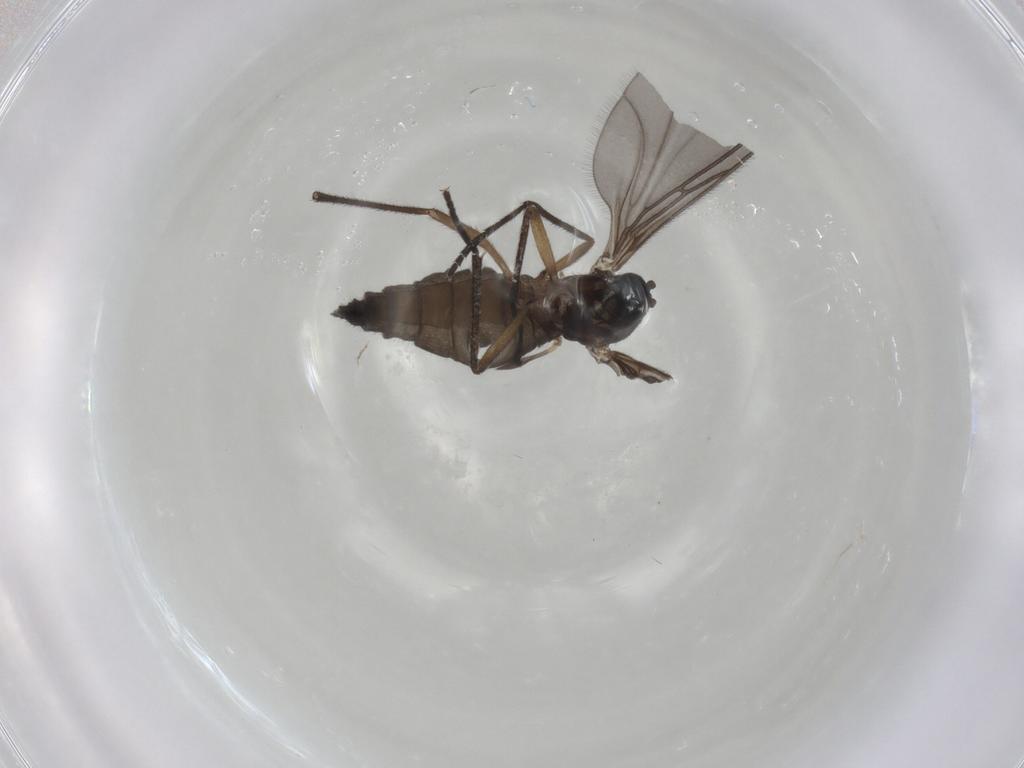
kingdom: Animalia
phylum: Arthropoda
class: Insecta
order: Diptera
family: Sciaridae
